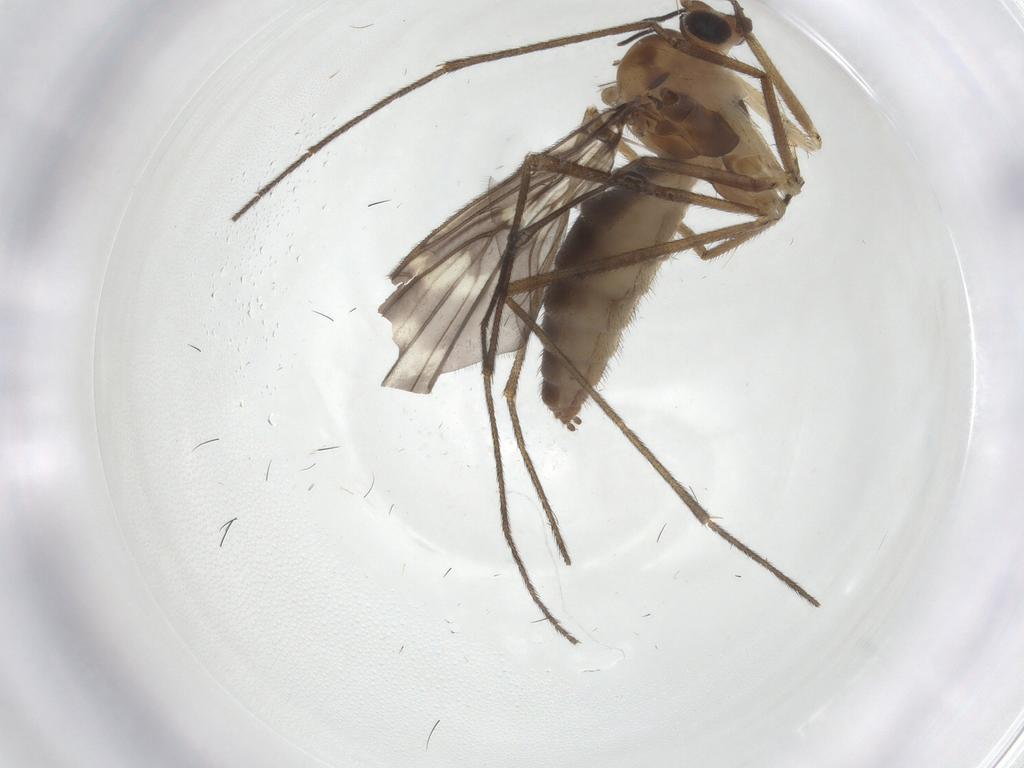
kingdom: Animalia
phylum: Arthropoda
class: Insecta
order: Diptera
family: Keroplatidae
